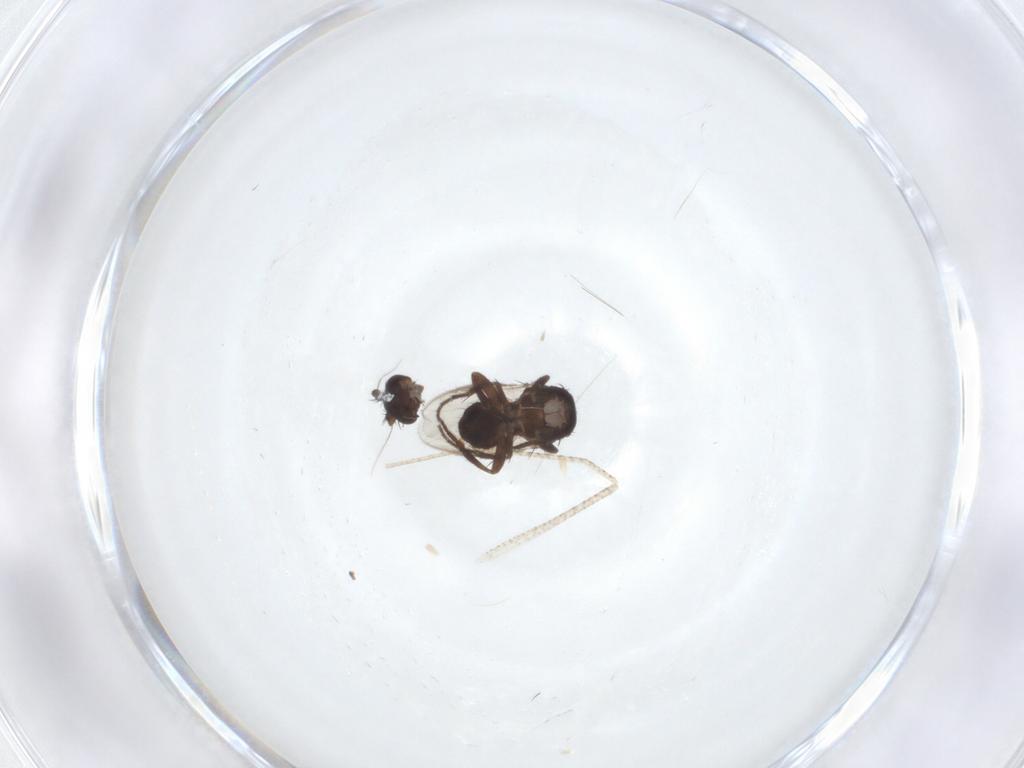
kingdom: Animalia
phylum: Arthropoda
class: Insecta
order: Diptera
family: Sphaeroceridae
